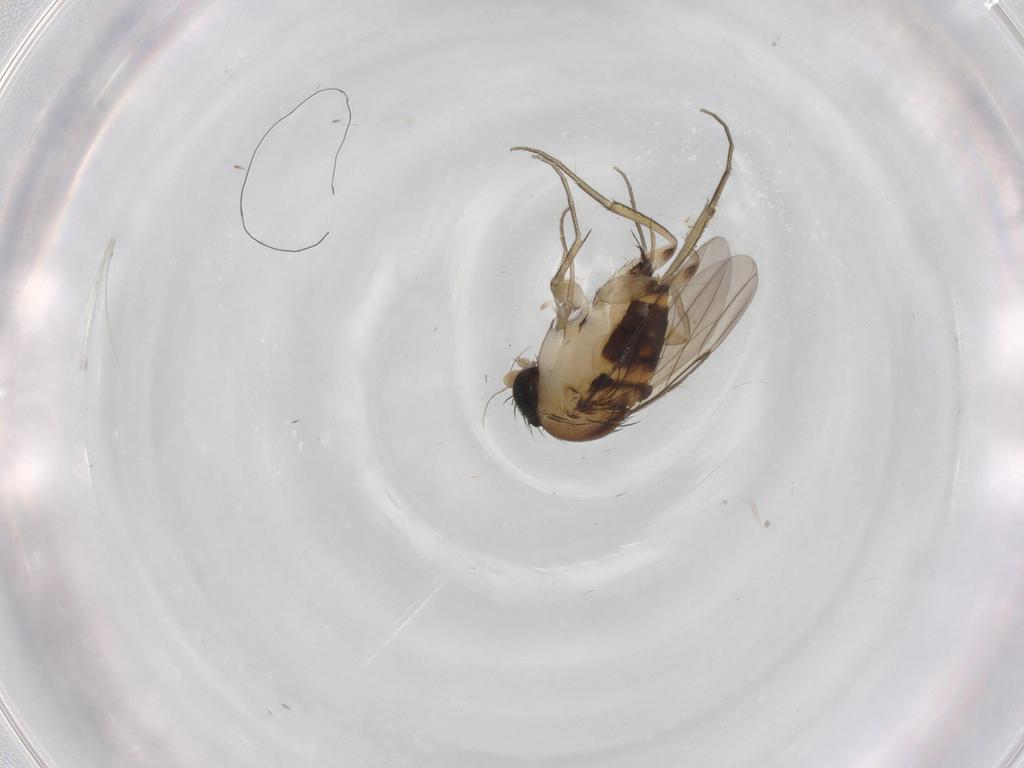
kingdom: Animalia
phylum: Arthropoda
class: Insecta
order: Diptera
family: Phoridae
